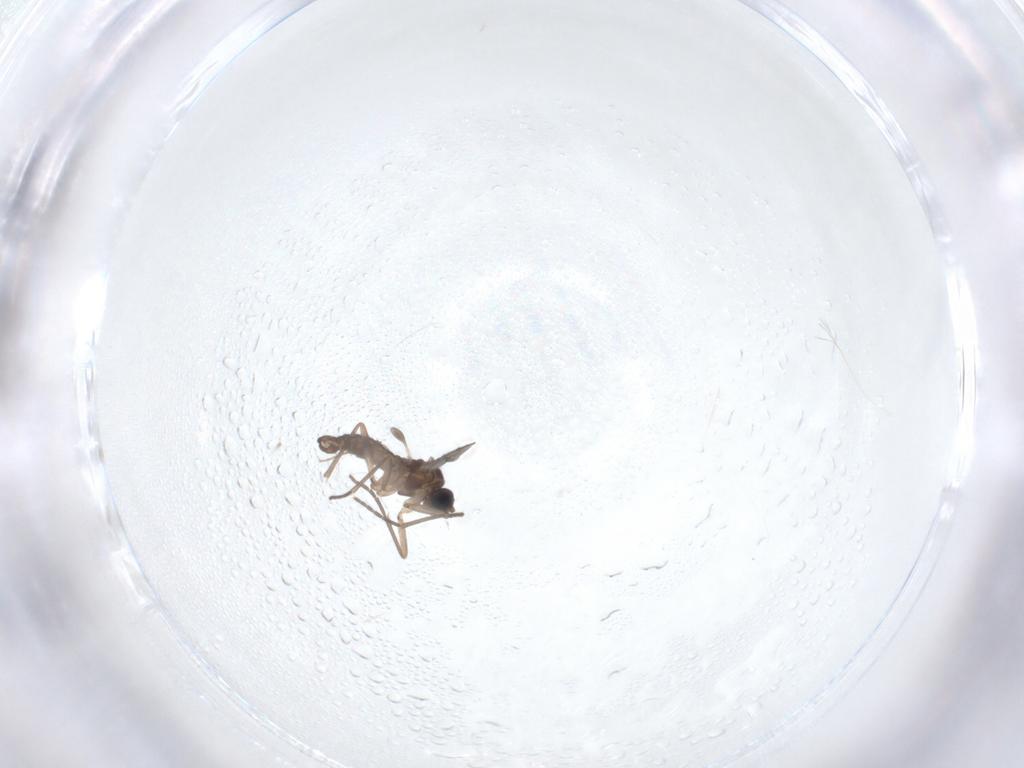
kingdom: Animalia
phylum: Arthropoda
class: Insecta
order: Diptera
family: Sciaridae
